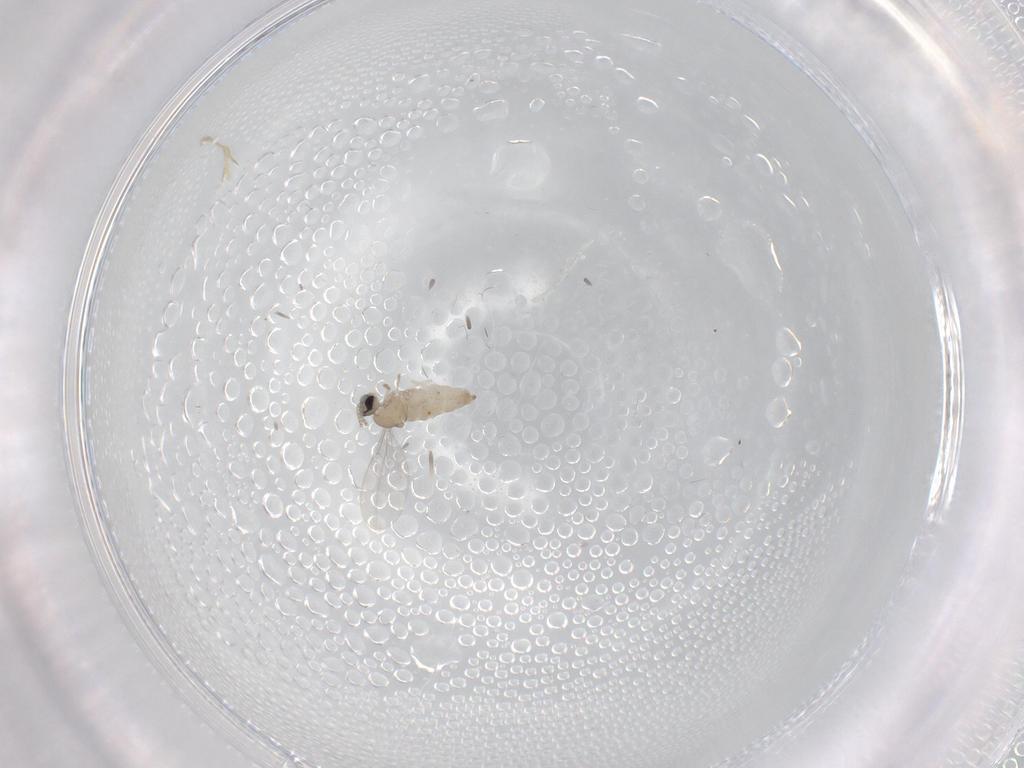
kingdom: Animalia
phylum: Arthropoda
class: Insecta
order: Diptera
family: Cecidomyiidae
